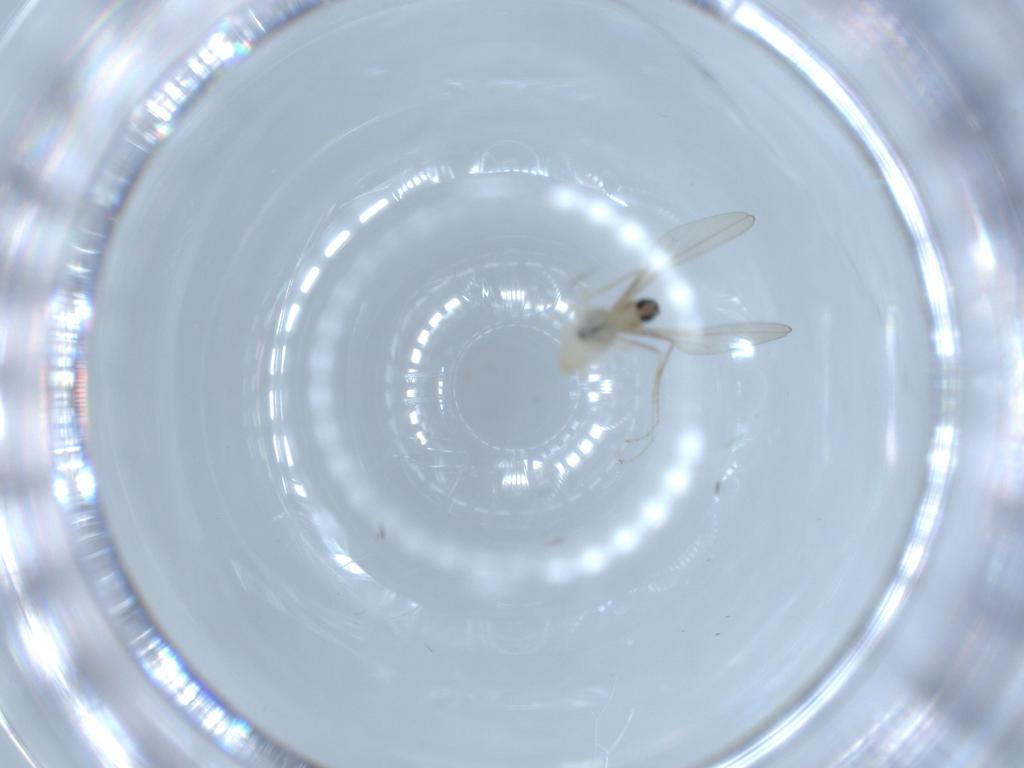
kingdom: Animalia
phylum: Arthropoda
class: Insecta
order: Diptera
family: Cecidomyiidae
